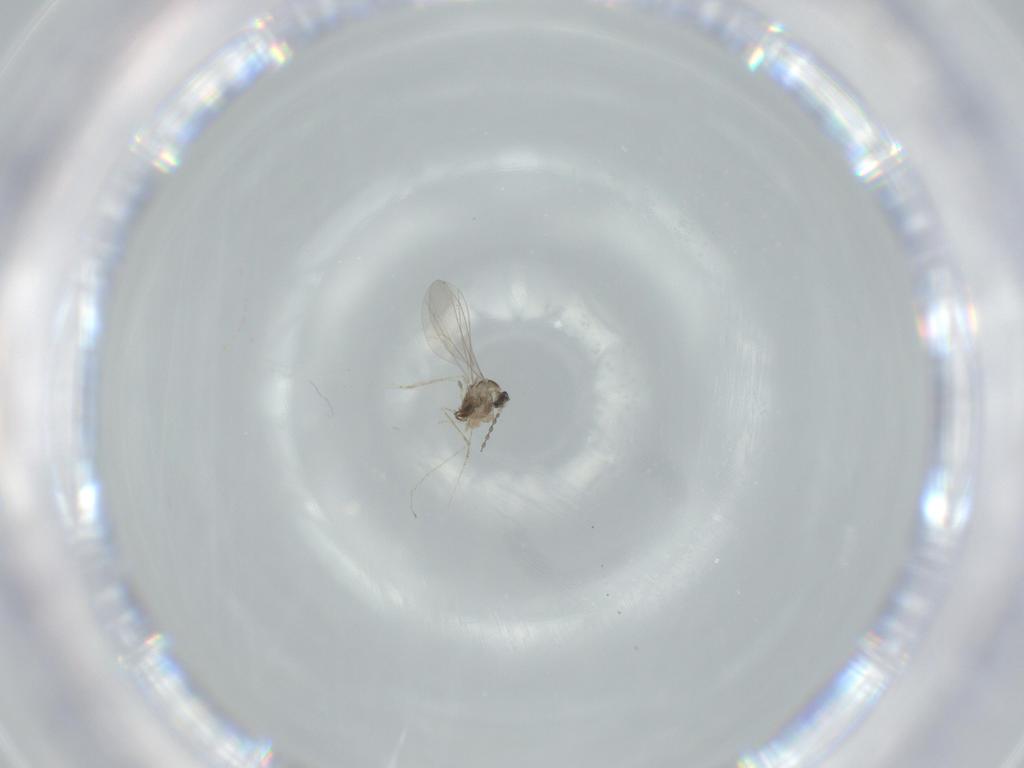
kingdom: Animalia
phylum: Arthropoda
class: Insecta
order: Diptera
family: Cecidomyiidae
